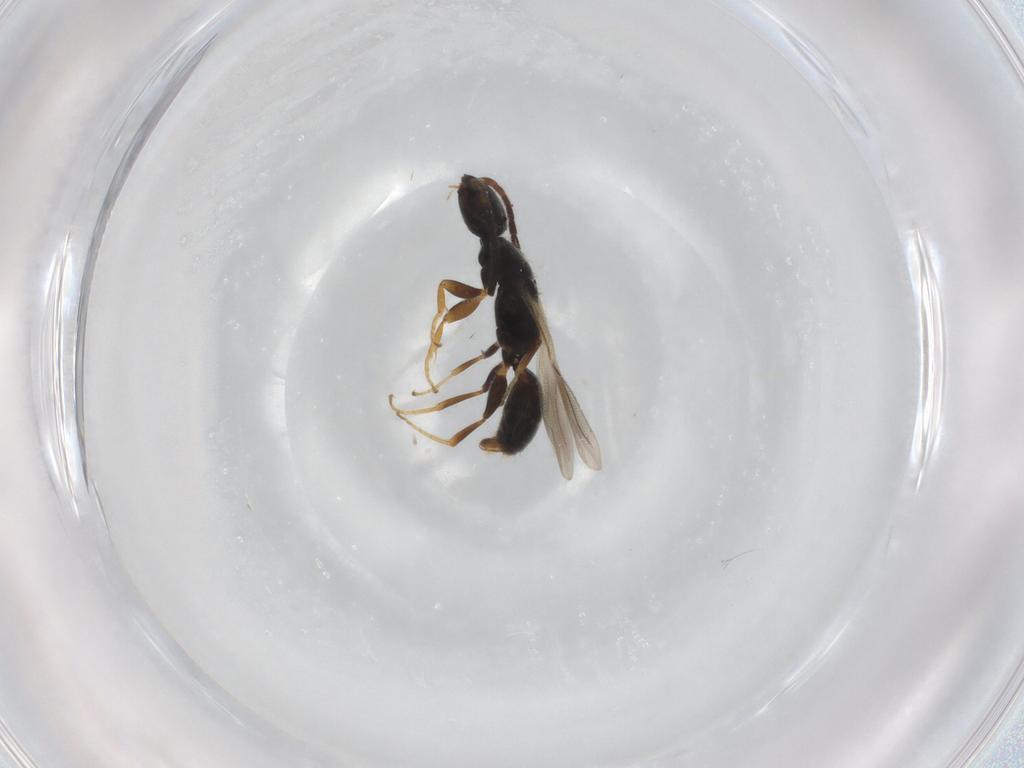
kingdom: Animalia
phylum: Arthropoda
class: Insecta
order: Hymenoptera
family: Bethylidae
